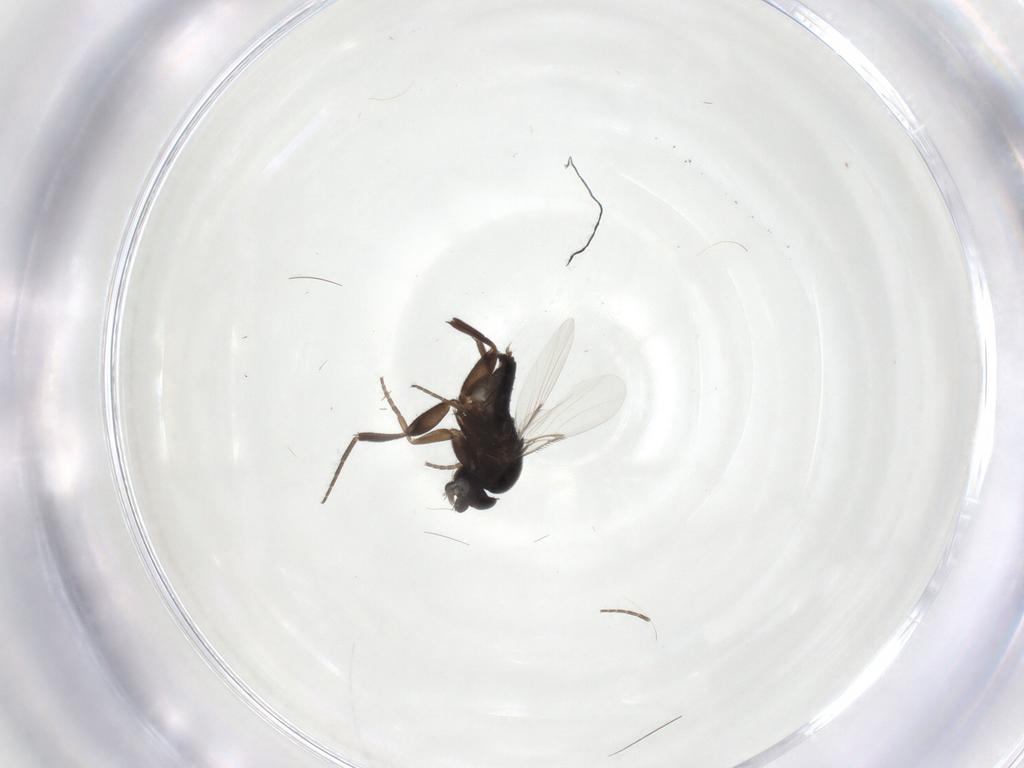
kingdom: Animalia
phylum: Arthropoda
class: Insecta
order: Diptera
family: Phoridae
